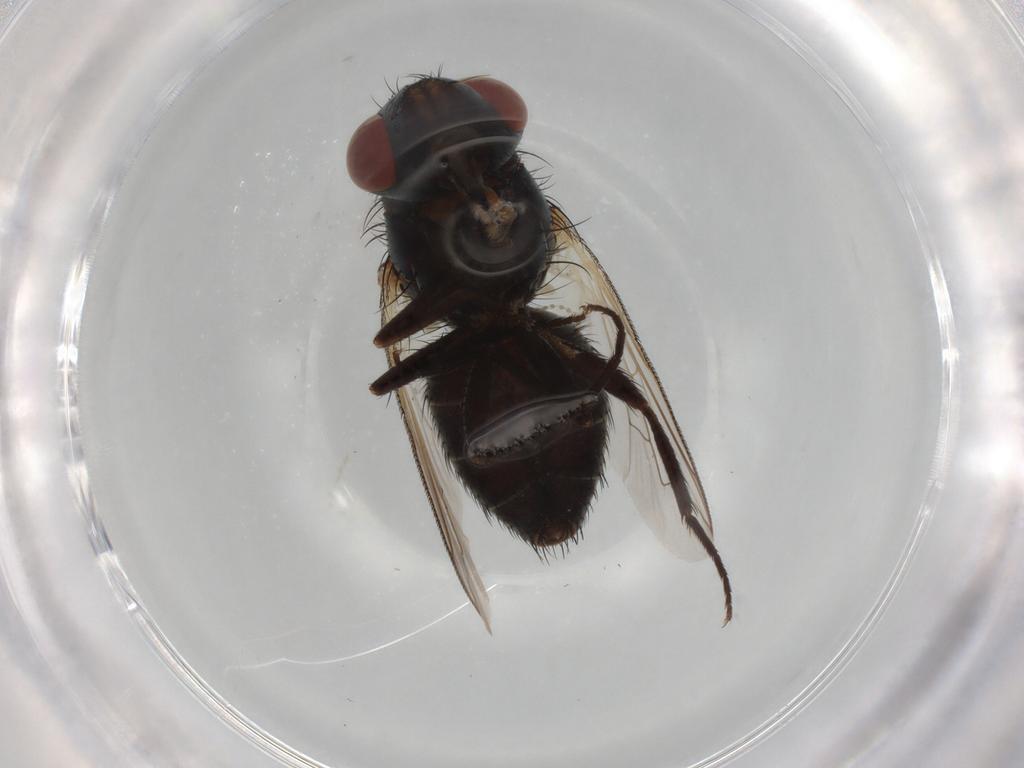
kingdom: Animalia
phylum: Arthropoda
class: Insecta
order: Diptera
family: Sarcophagidae
